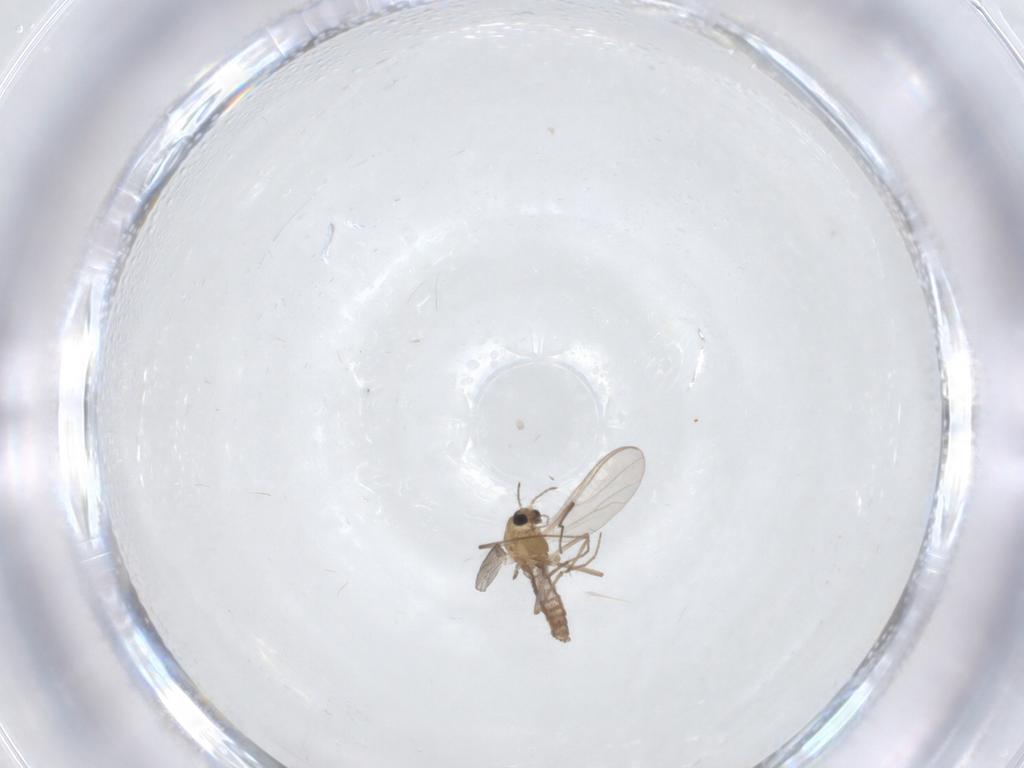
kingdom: Animalia
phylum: Arthropoda
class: Insecta
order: Diptera
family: Chironomidae
